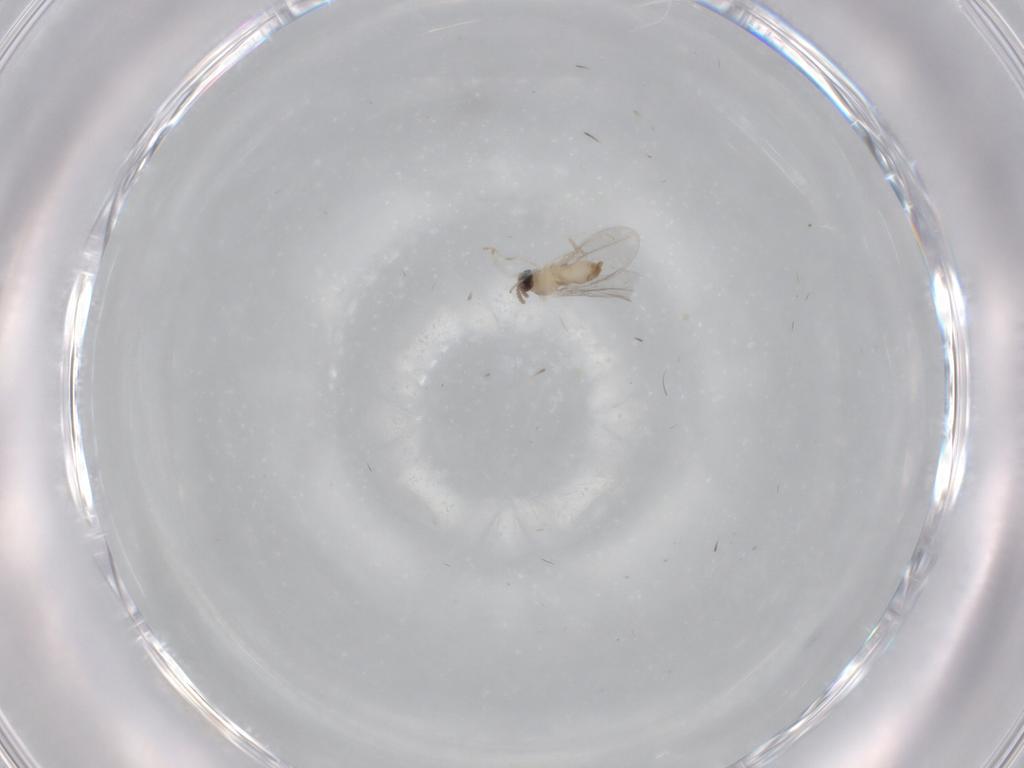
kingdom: Animalia
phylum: Arthropoda
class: Insecta
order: Diptera
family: Cecidomyiidae
